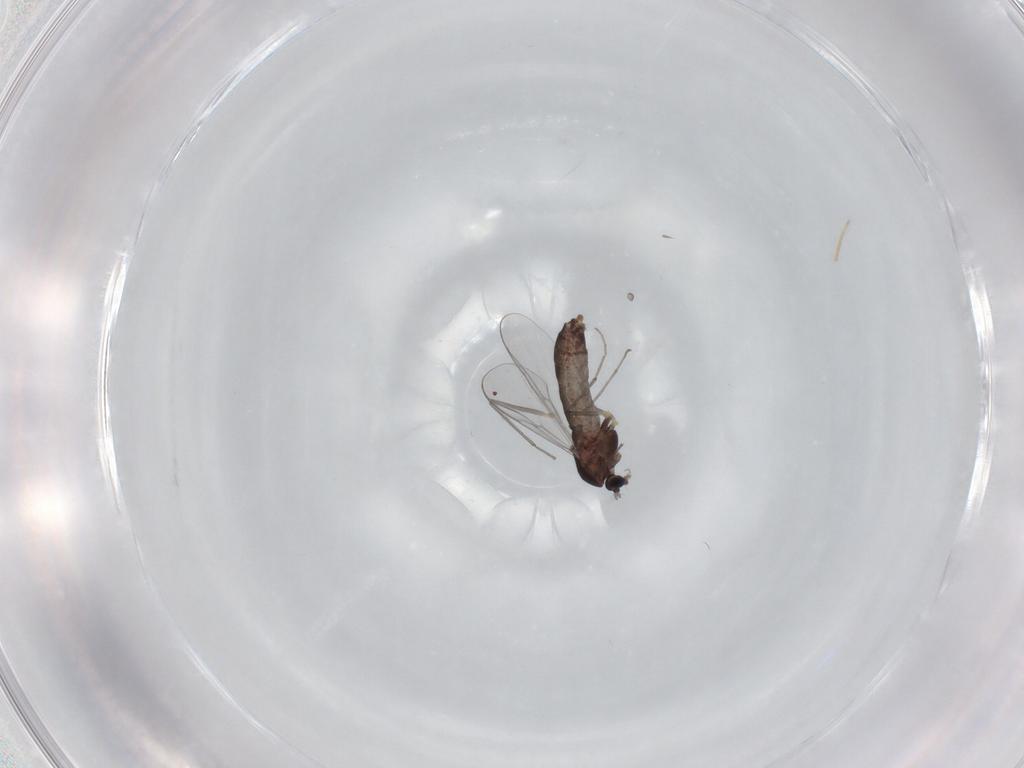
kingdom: Animalia
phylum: Arthropoda
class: Insecta
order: Diptera
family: Chironomidae
